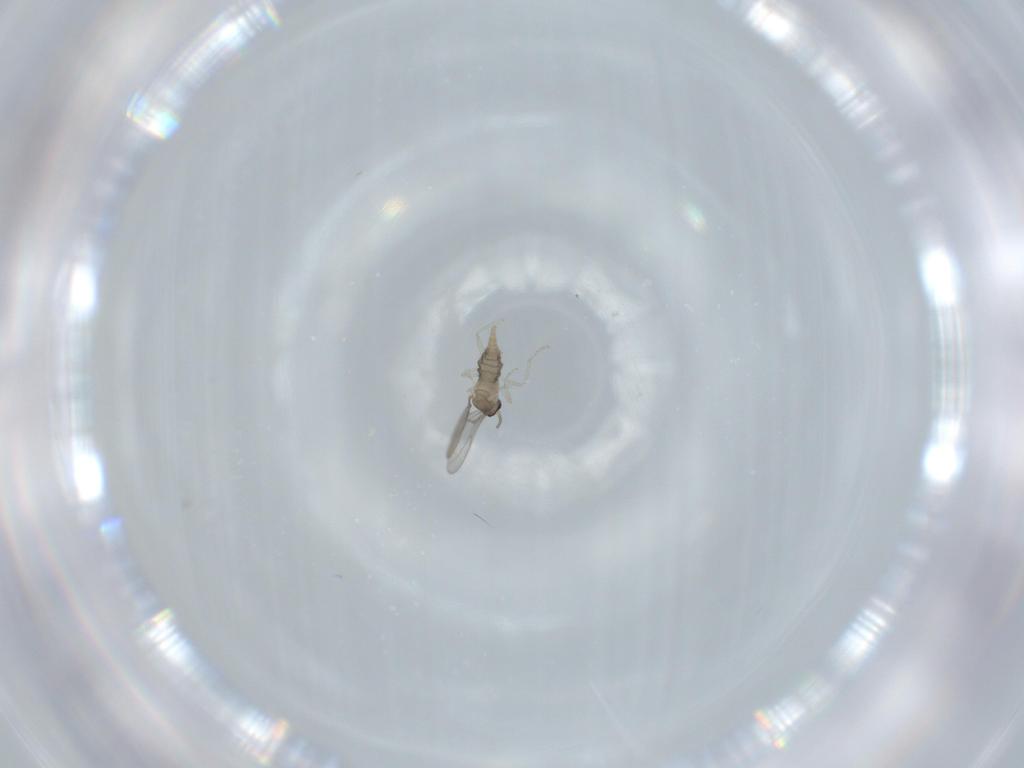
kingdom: Animalia
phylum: Arthropoda
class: Insecta
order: Diptera
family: Cecidomyiidae
